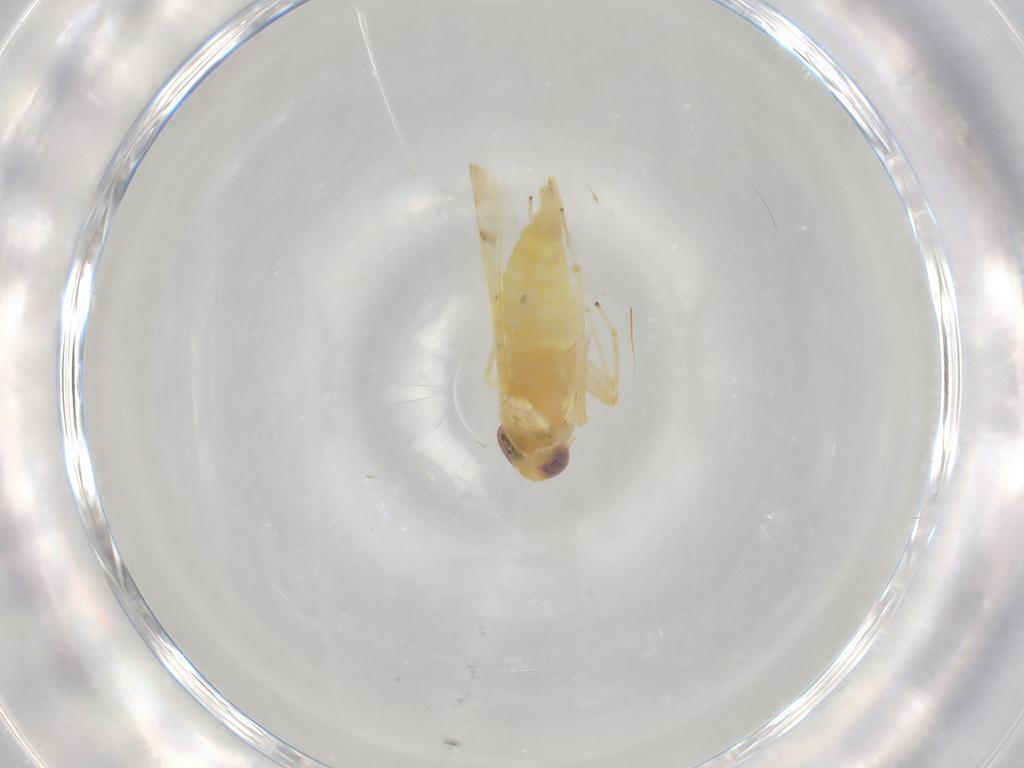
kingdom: Animalia
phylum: Arthropoda
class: Insecta
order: Hemiptera
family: Cicadellidae
